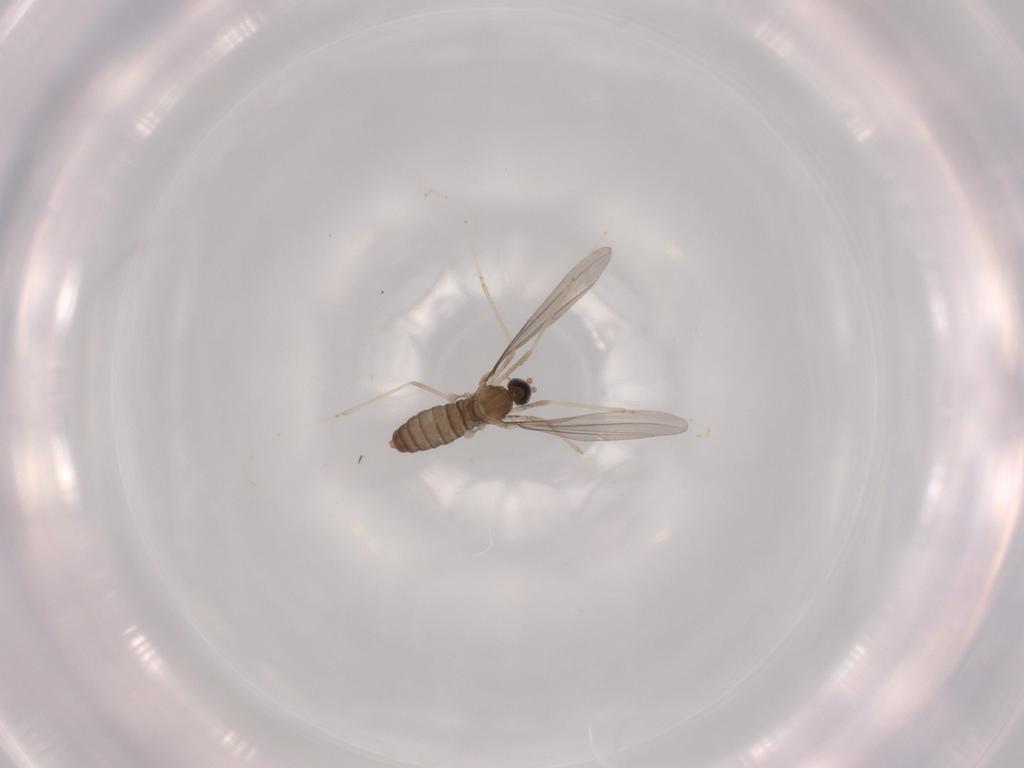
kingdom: Animalia
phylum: Arthropoda
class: Insecta
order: Diptera
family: Cecidomyiidae
